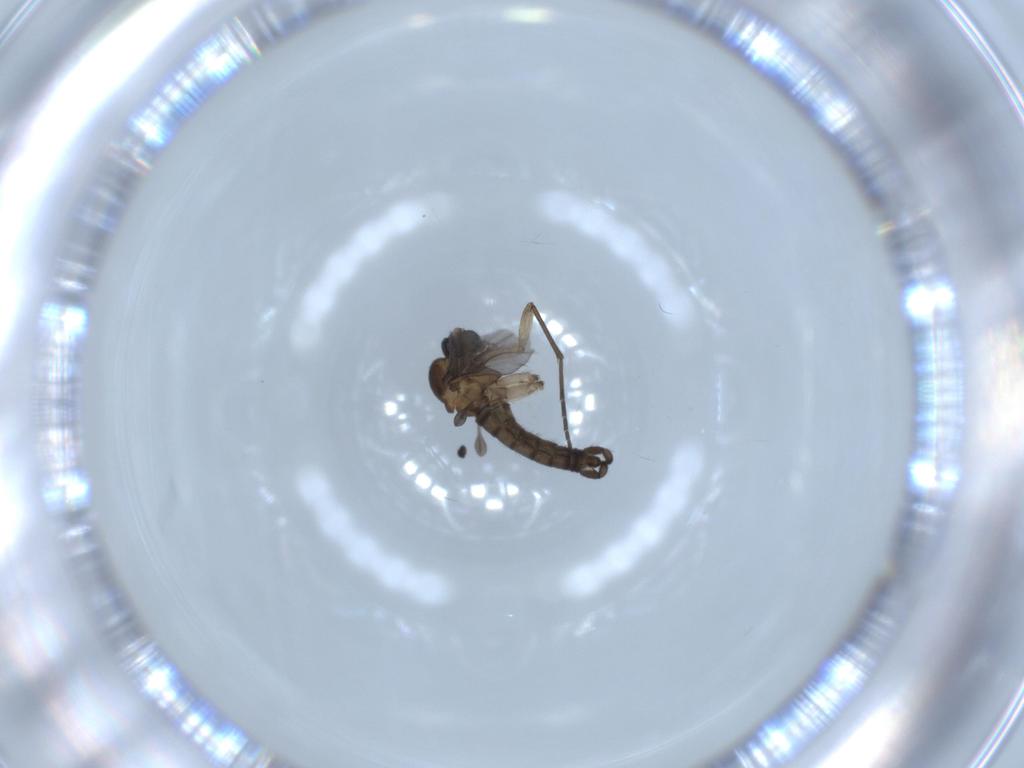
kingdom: Animalia
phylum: Arthropoda
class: Insecta
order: Diptera
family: Sciaridae
